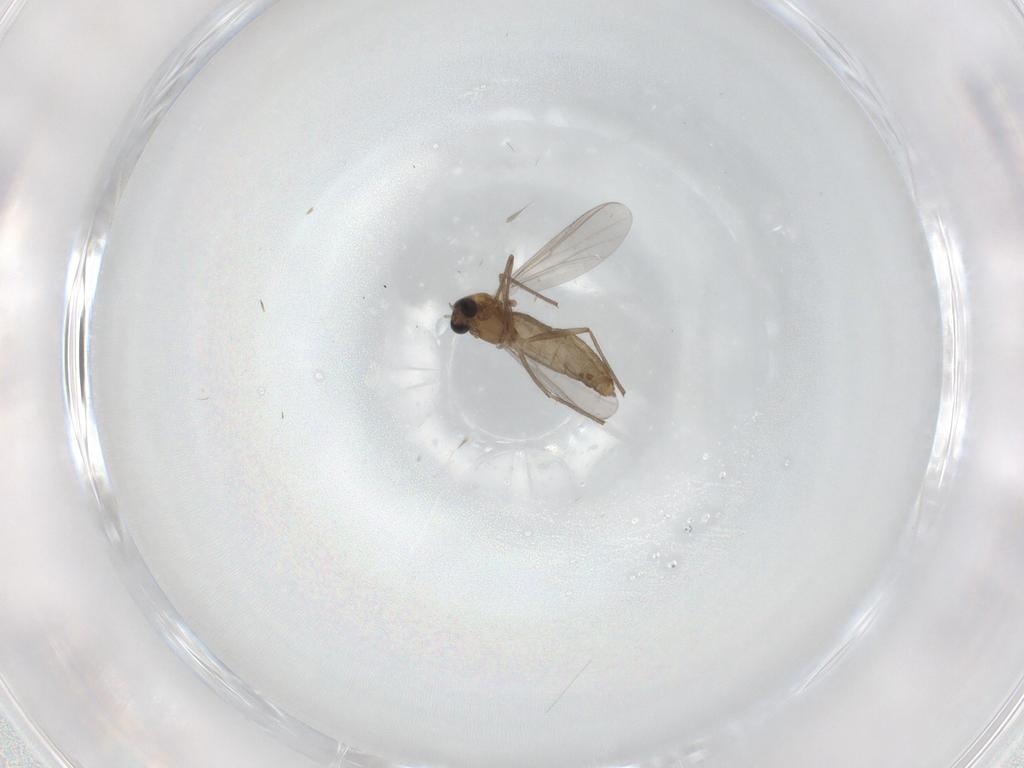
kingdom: Animalia
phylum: Arthropoda
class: Insecta
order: Diptera
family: Chironomidae
